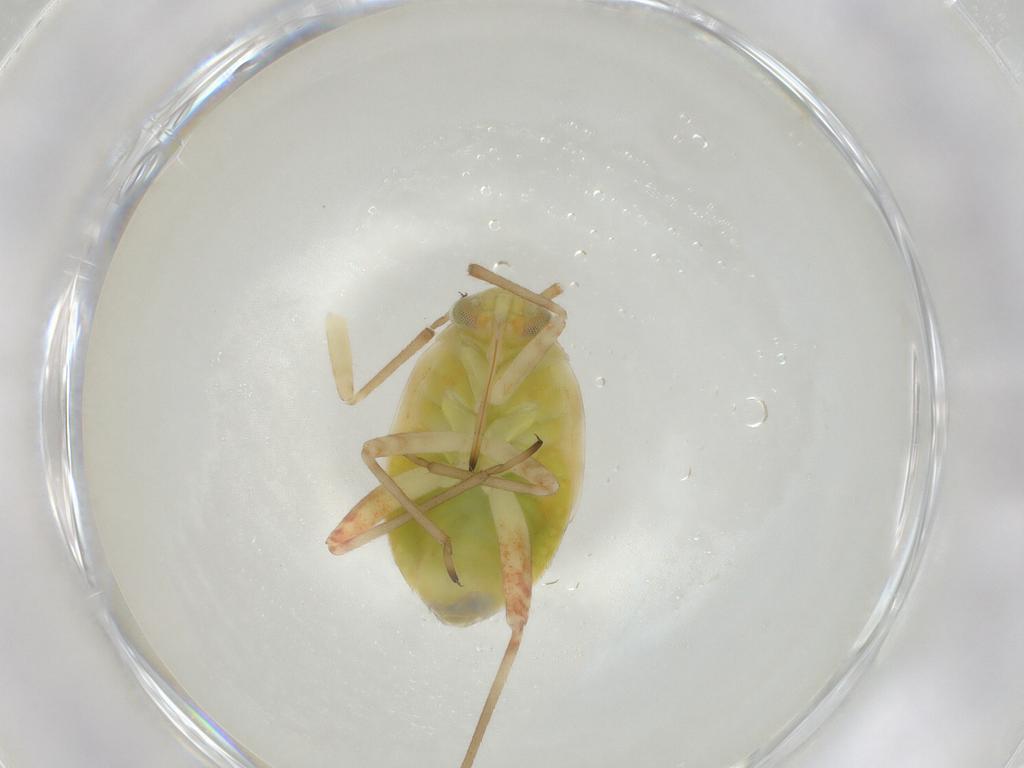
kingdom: Animalia
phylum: Arthropoda
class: Insecta
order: Hemiptera
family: Miridae
